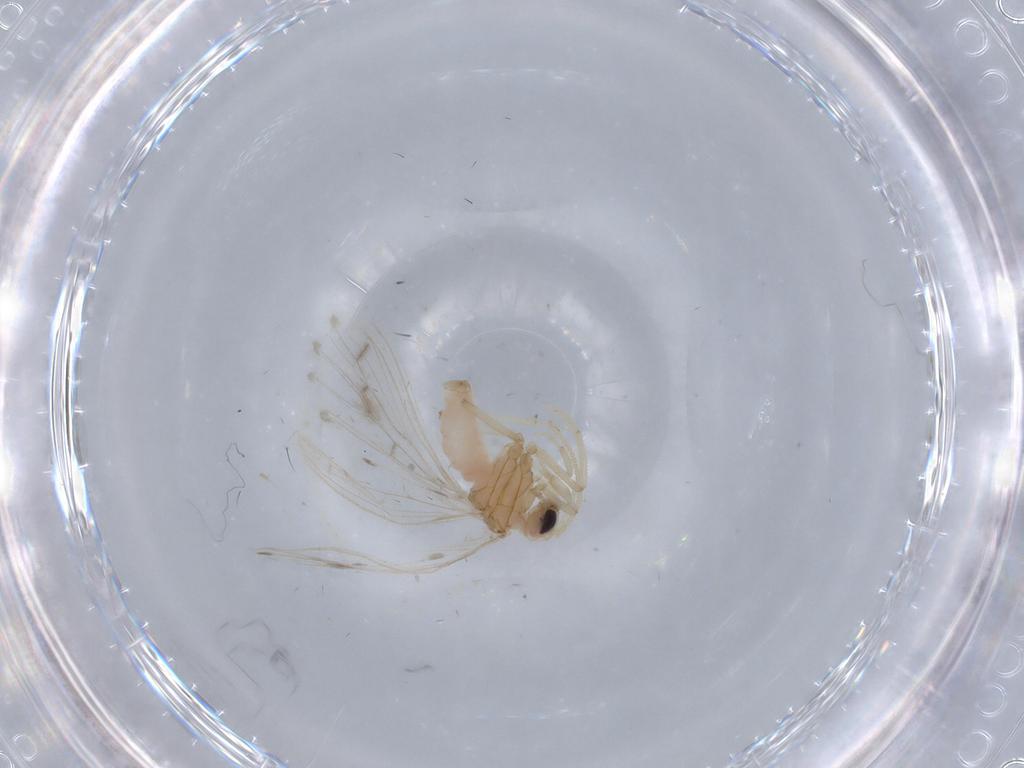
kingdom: Animalia
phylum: Arthropoda
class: Insecta
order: Neuroptera
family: Coniopterygidae
